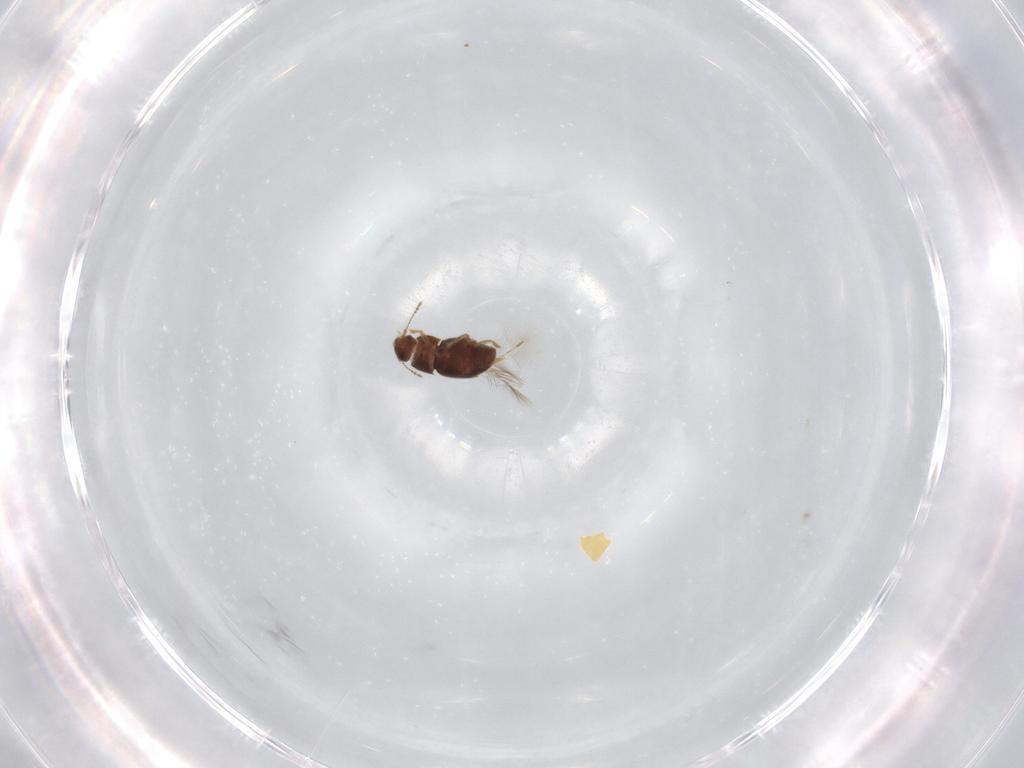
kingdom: Animalia
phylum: Arthropoda
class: Insecta
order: Coleoptera
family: Ptiliidae
